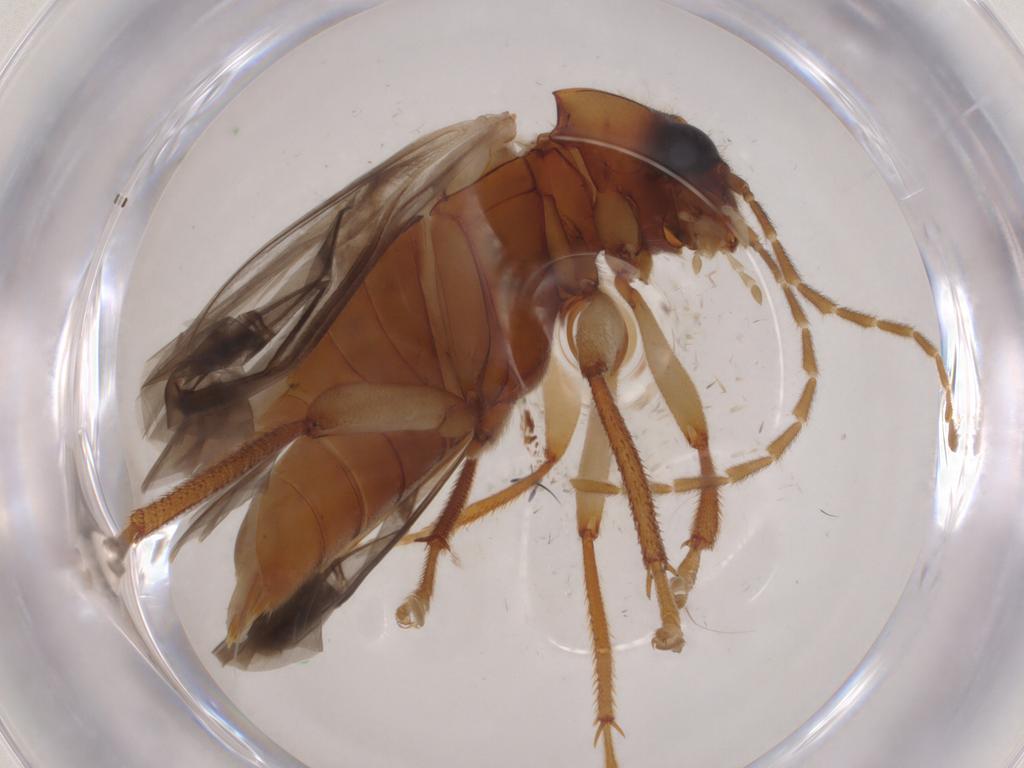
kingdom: Animalia
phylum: Arthropoda
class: Insecta
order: Coleoptera
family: Ptilodactylidae
